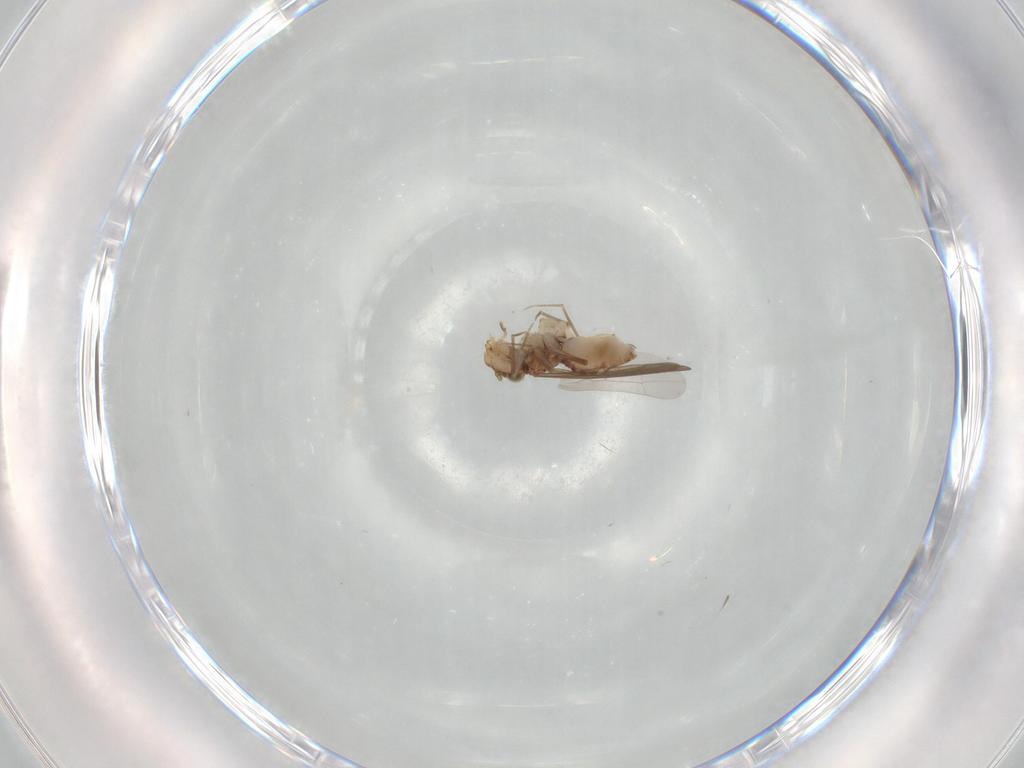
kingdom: Animalia
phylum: Arthropoda
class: Insecta
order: Psocodea
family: Lepidopsocidae
